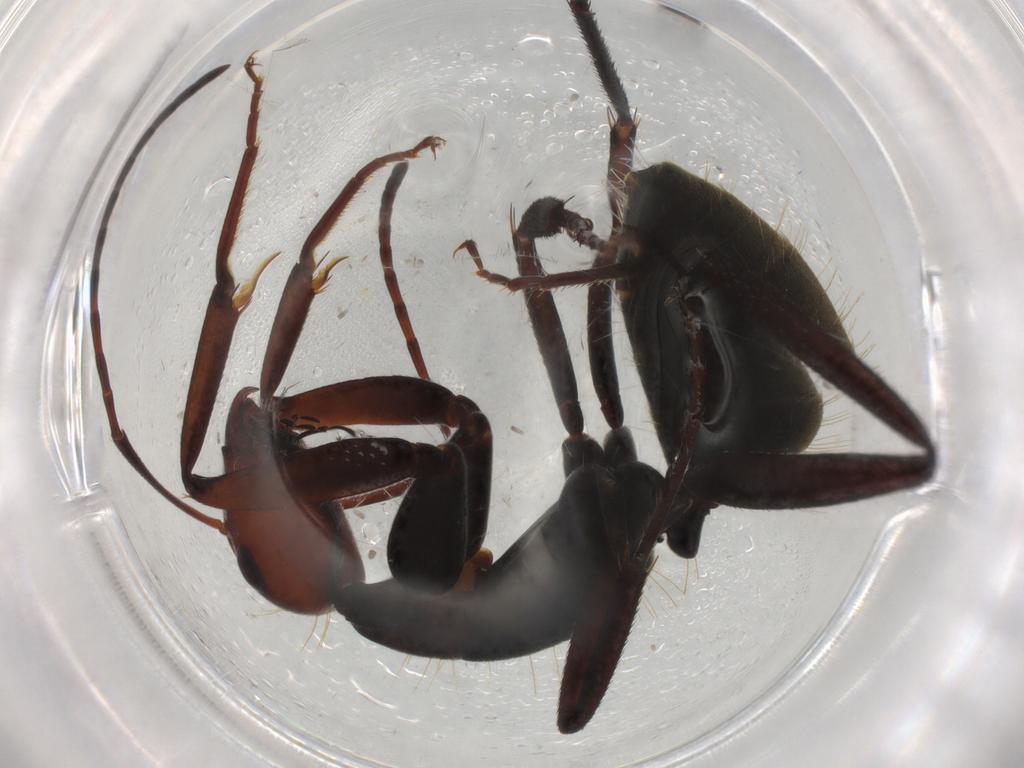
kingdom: Animalia
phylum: Arthropoda
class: Insecta
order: Hymenoptera
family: Formicidae
